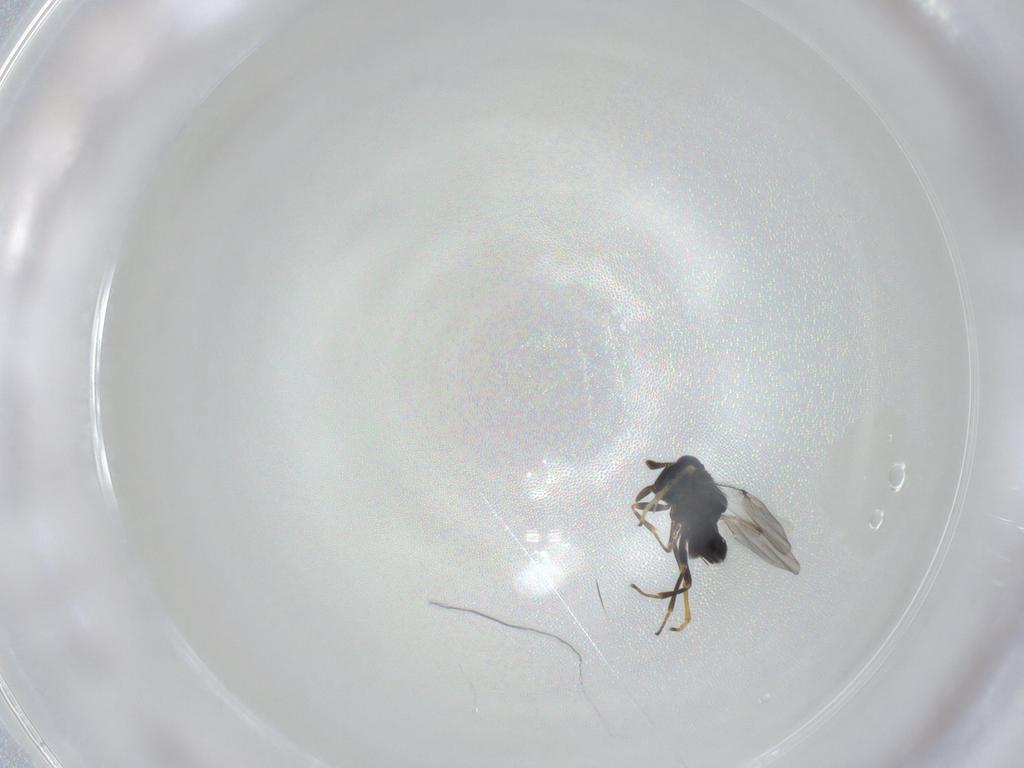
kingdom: Animalia
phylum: Arthropoda
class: Insecta
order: Hymenoptera
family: Encyrtidae
